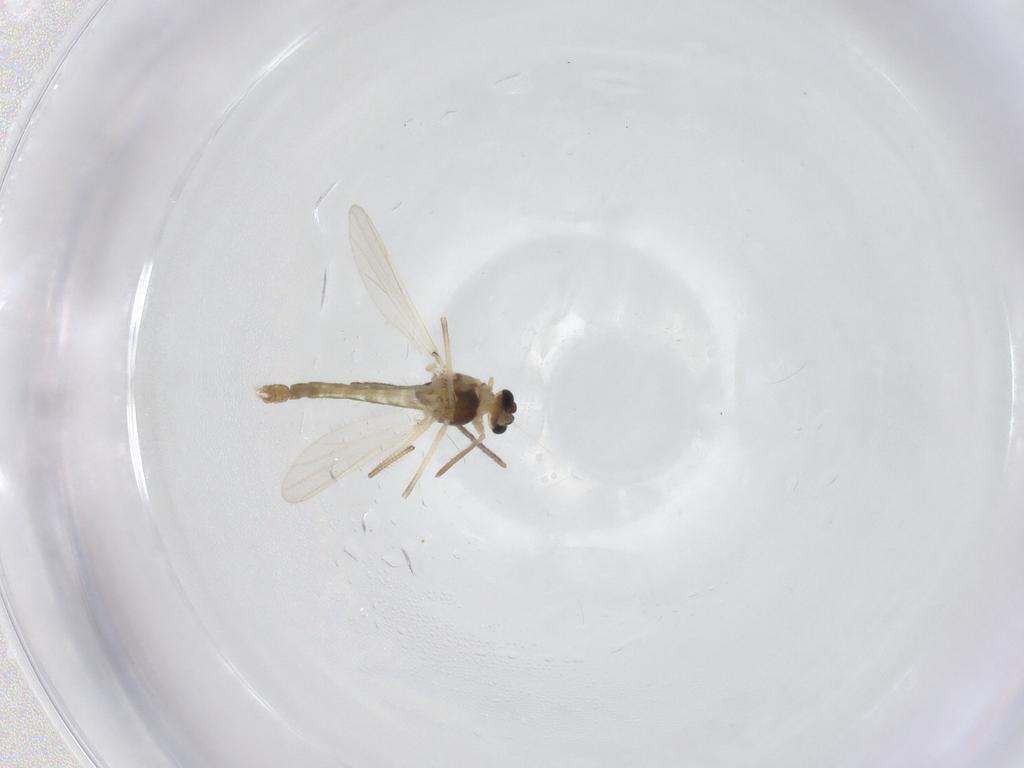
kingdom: Animalia
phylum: Arthropoda
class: Insecta
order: Diptera
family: Chironomidae
